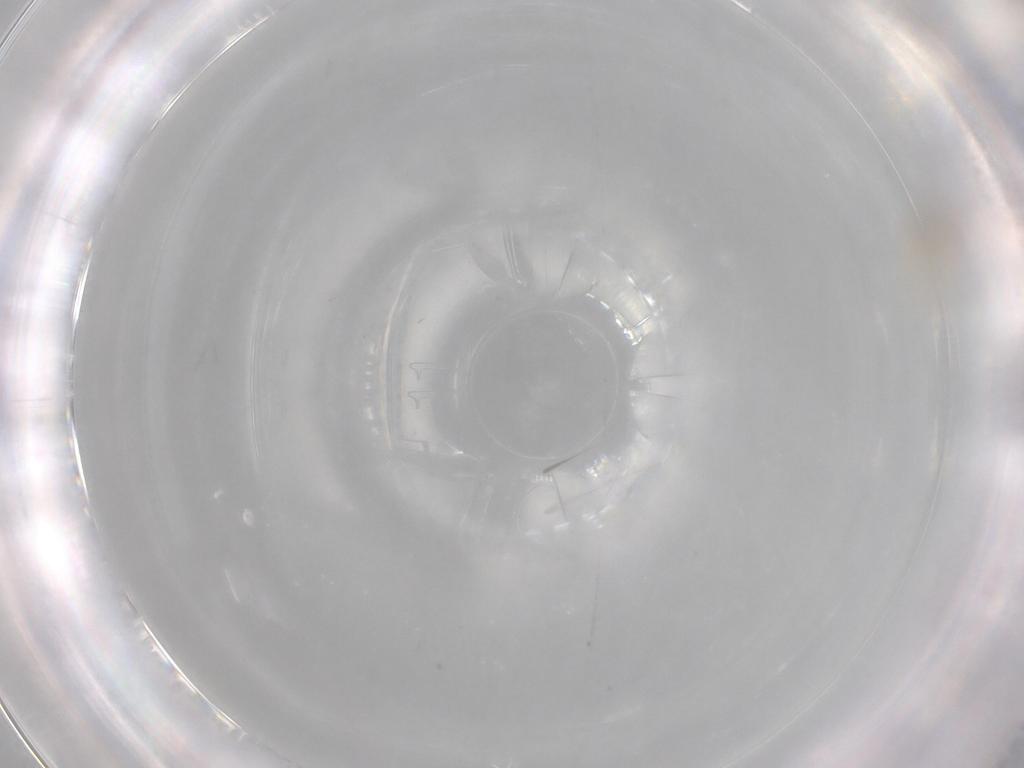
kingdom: Animalia
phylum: Arthropoda
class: Insecta
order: Diptera
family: Cecidomyiidae
